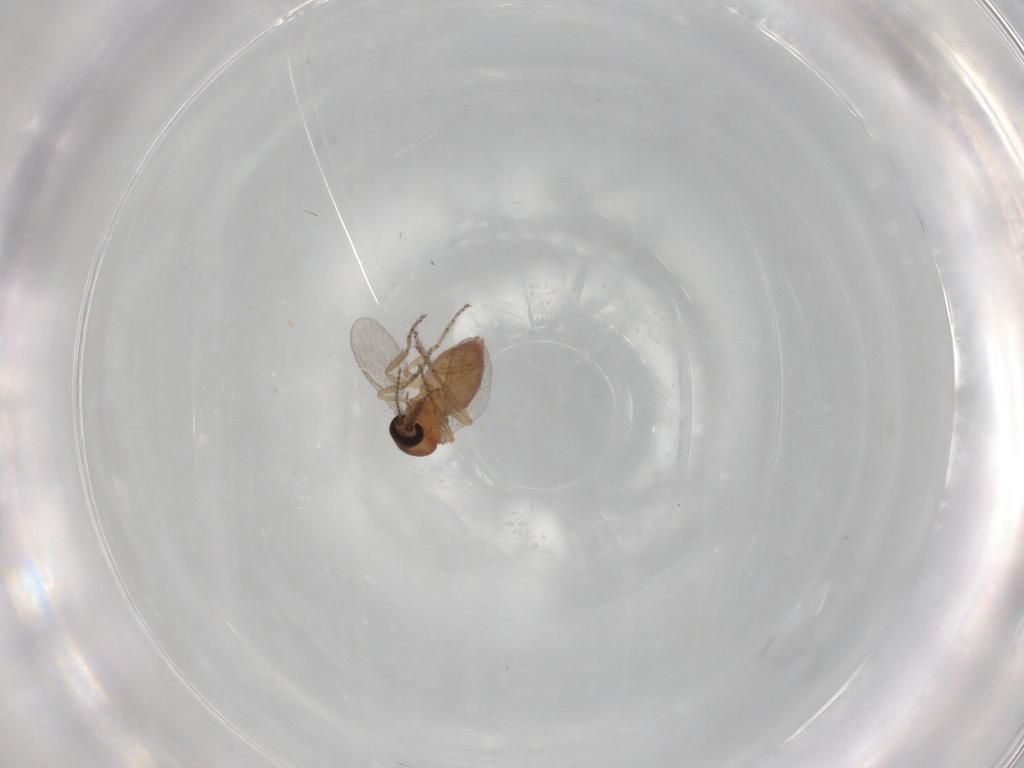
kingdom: Animalia
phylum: Arthropoda
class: Insecta
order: Diptera
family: Ceratopogonidae
